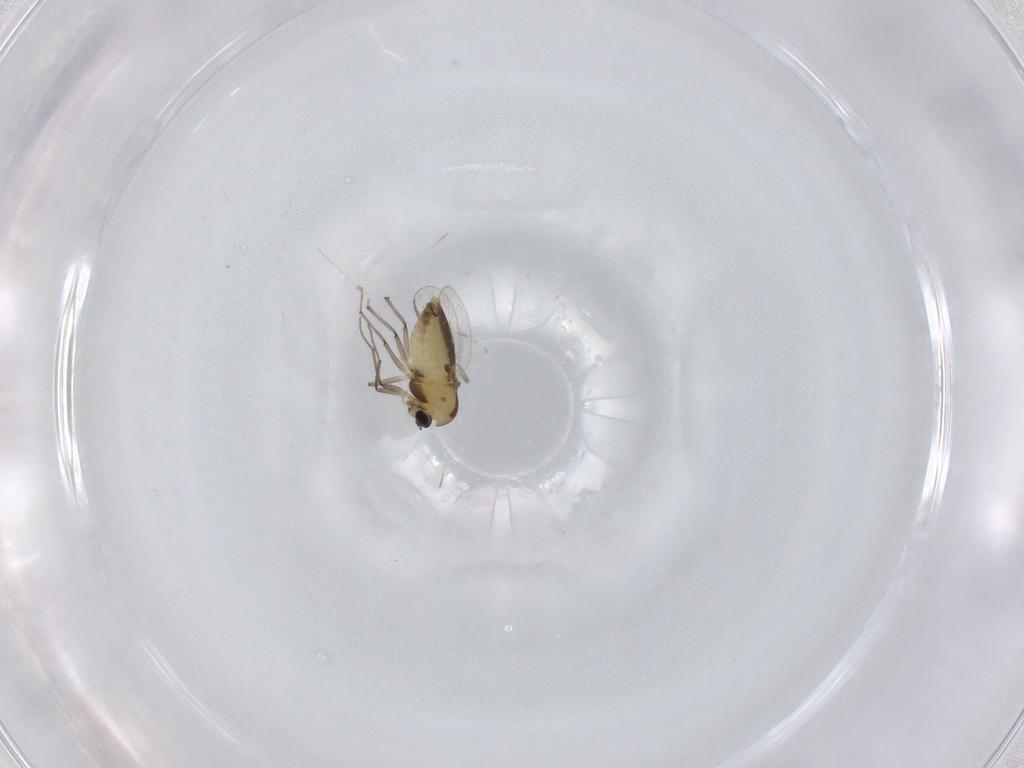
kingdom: Animalia
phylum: Arthropoda
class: Insecta
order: Diptera
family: Chironomidae
